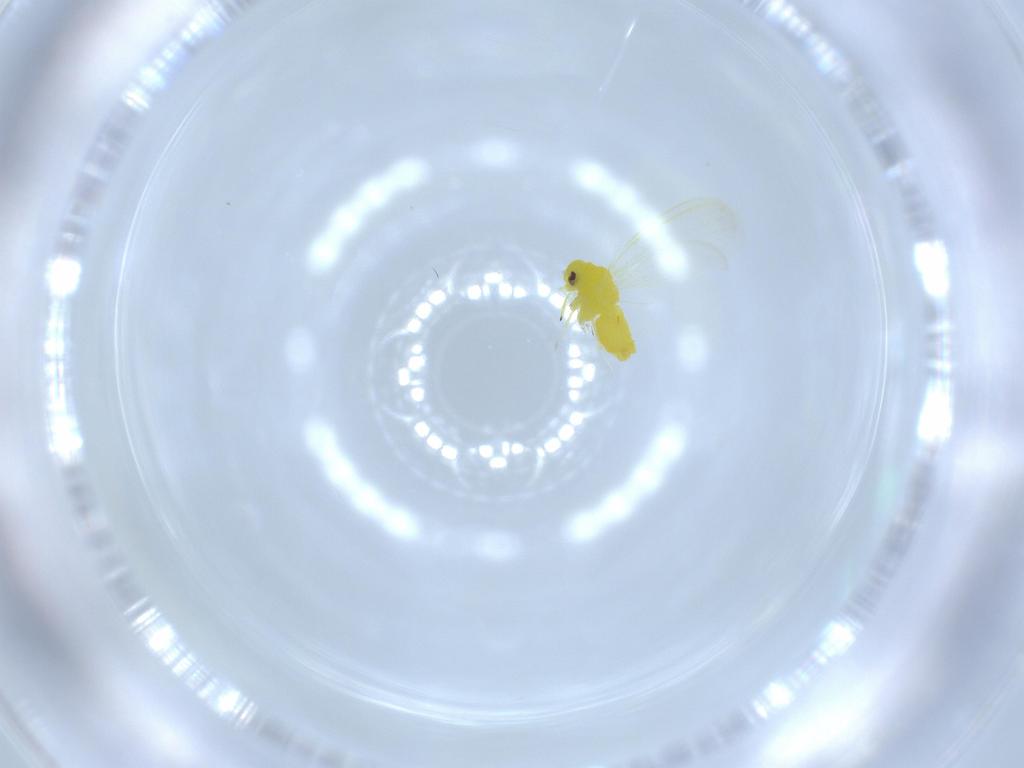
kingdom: Animalia
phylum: Arthropoda
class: Insecta
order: Hemiptera
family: Aleyrodidae
